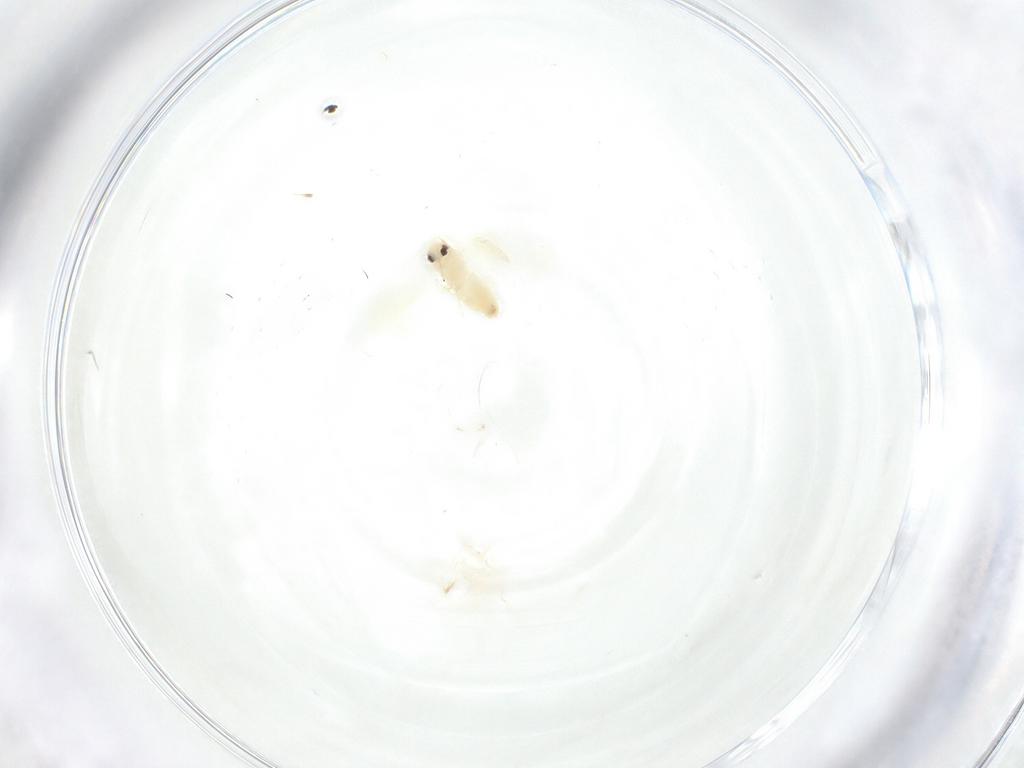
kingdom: Animalia
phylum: Arthropoda
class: Insecta
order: Hemiptera
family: Aleyrodidae
